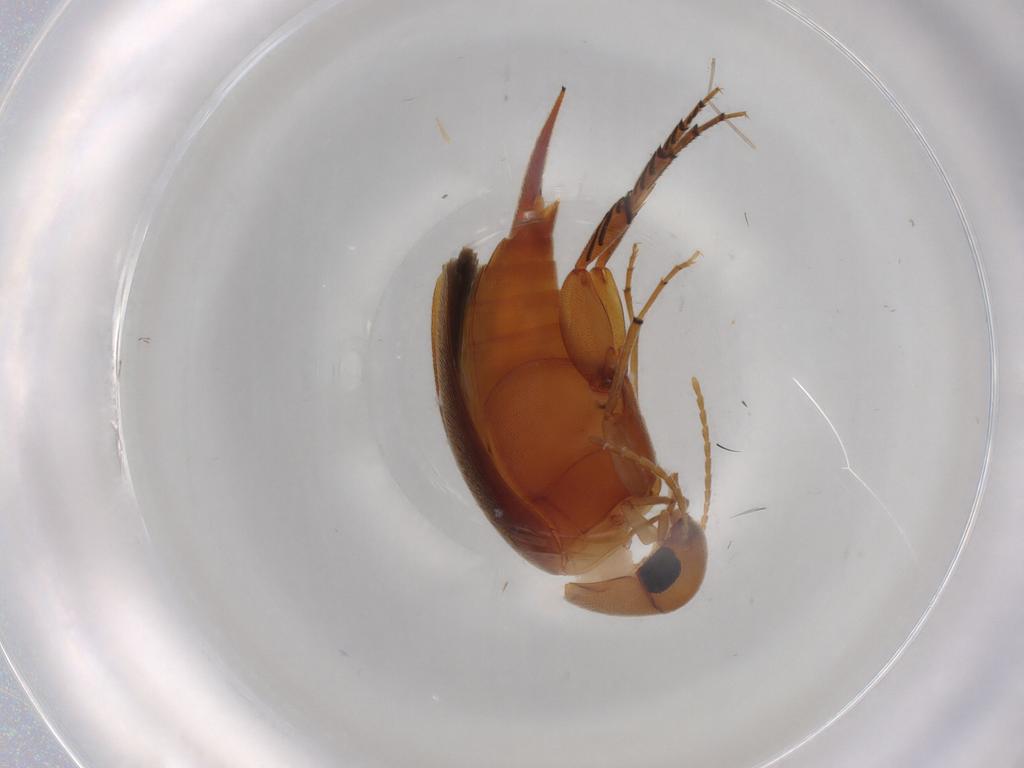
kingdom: Animalia
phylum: Arthropoda
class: Insecta
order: Coleoptera
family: Mordellidae
